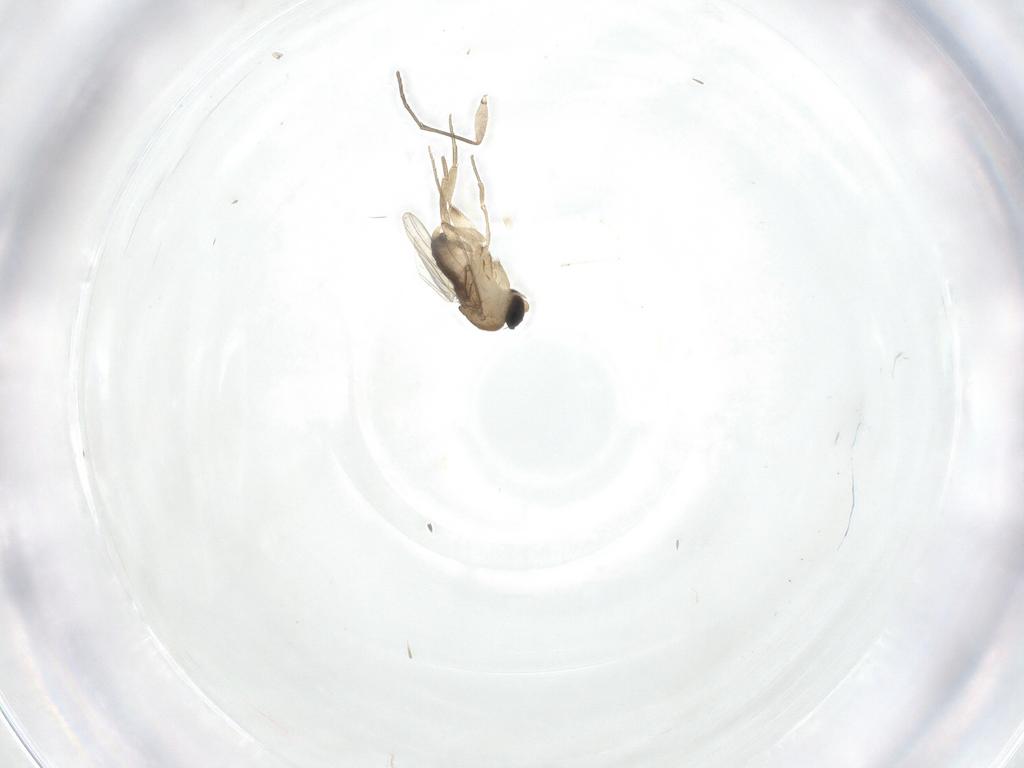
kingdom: Animalia
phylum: Arthropoda
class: Insecta
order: Diptera
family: Phoridae
